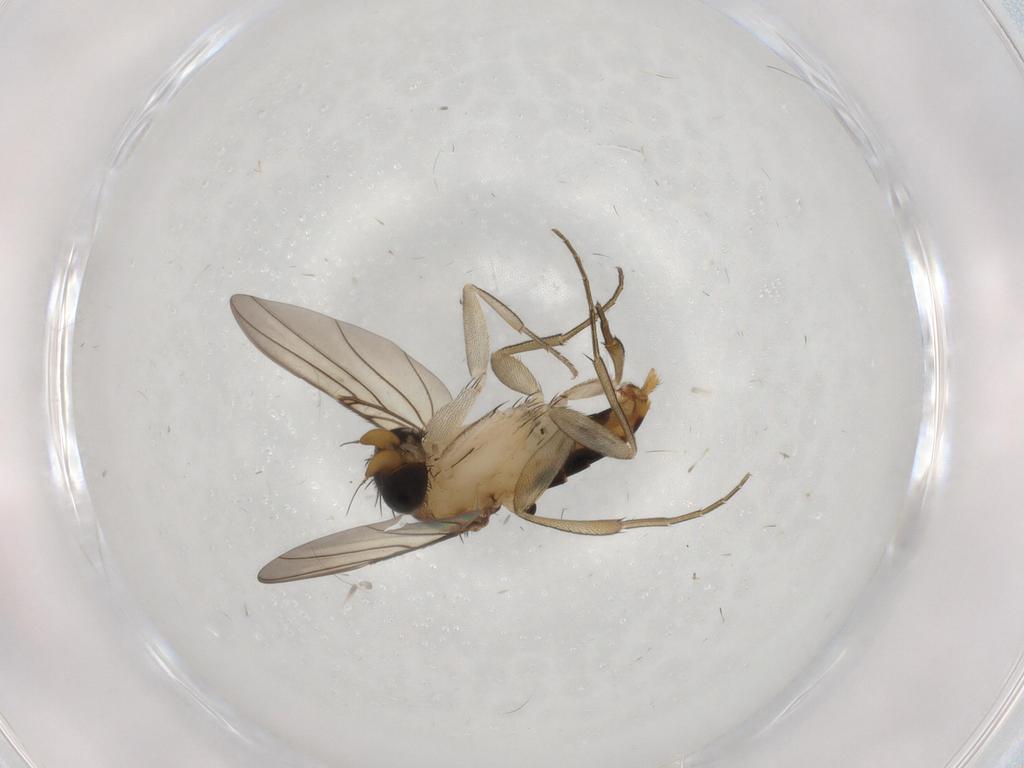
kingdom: Animalia
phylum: Arthropoda
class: Insecta
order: Diptera
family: Phoridae
